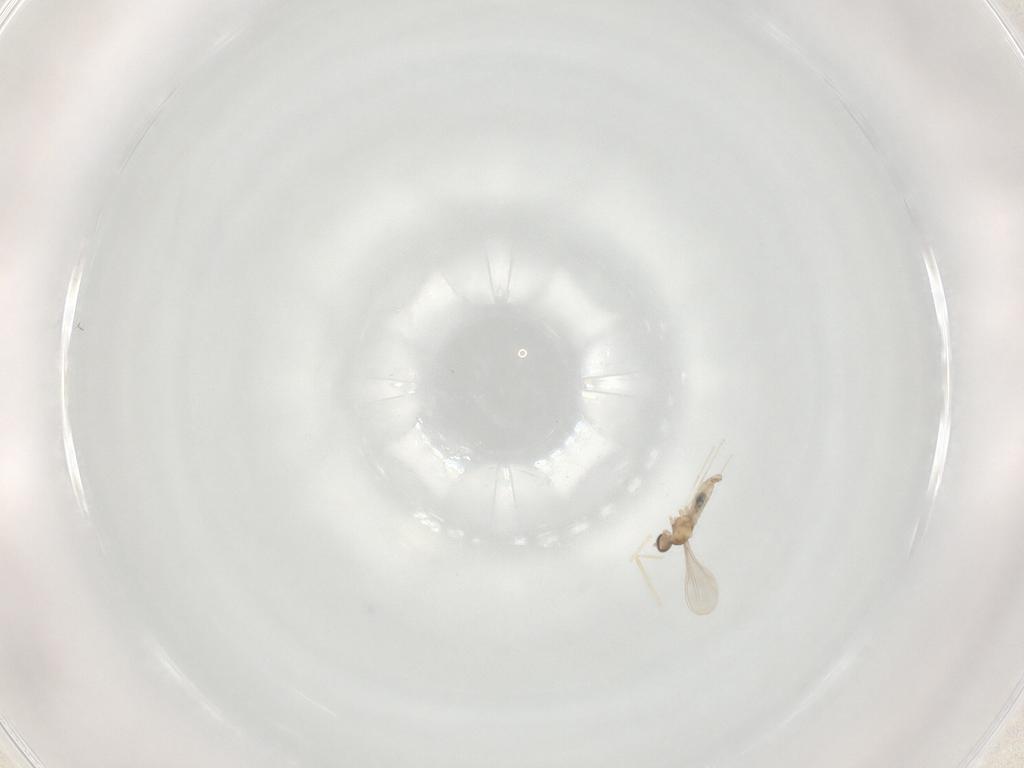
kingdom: Animalia
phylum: Arthropoda
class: Insecta
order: Diptera
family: Cecidomyiidae
